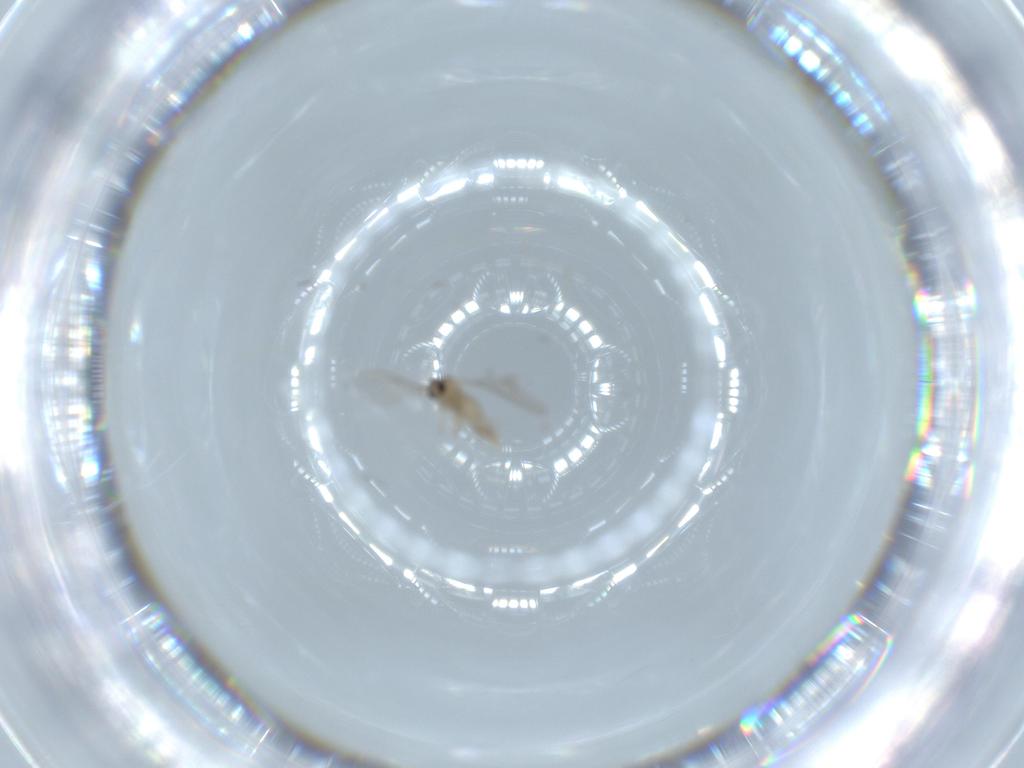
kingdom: Animalia
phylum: Arthropoda
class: Insecta
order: Diptera
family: Cecidomyiidae
